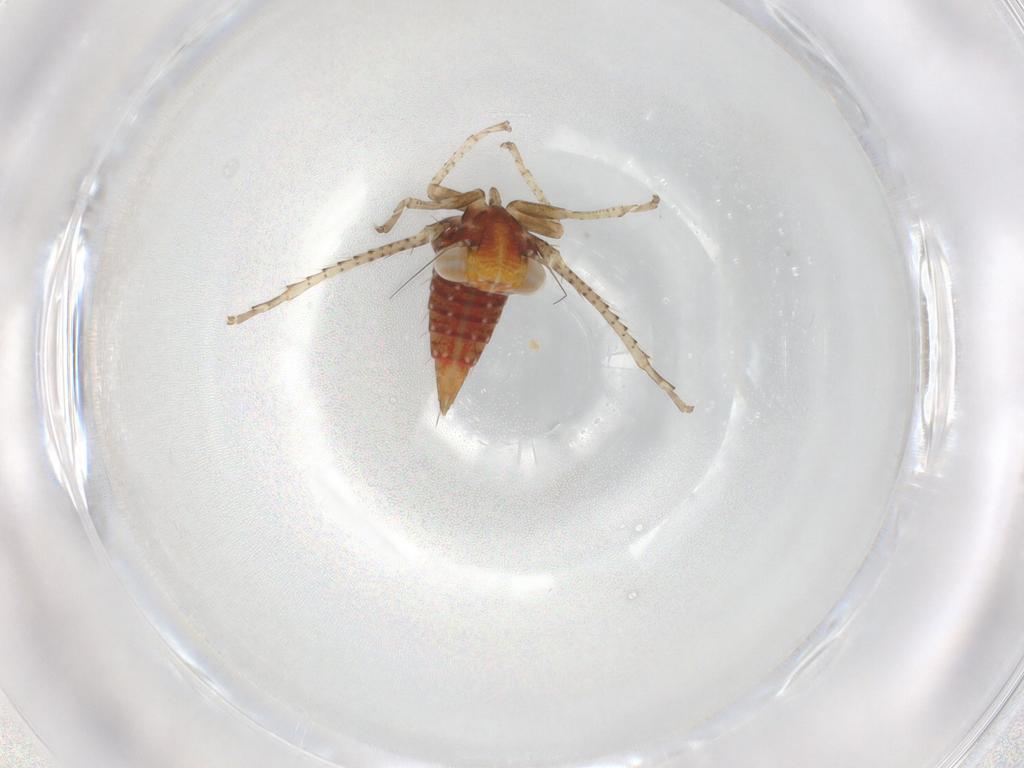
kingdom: Animalia
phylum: Arthropoda
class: Insecta
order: Hemiptera
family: Cicadellidae
